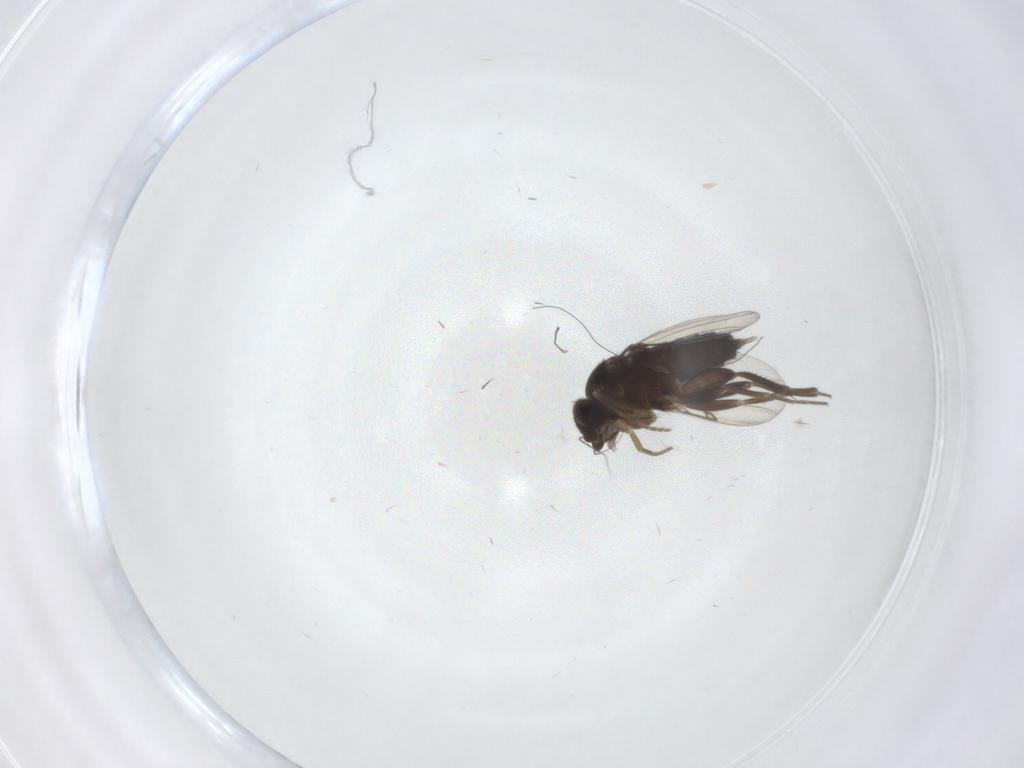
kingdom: Animalia
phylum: Arthropoda
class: Insecta
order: Diptera
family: Phoridae
